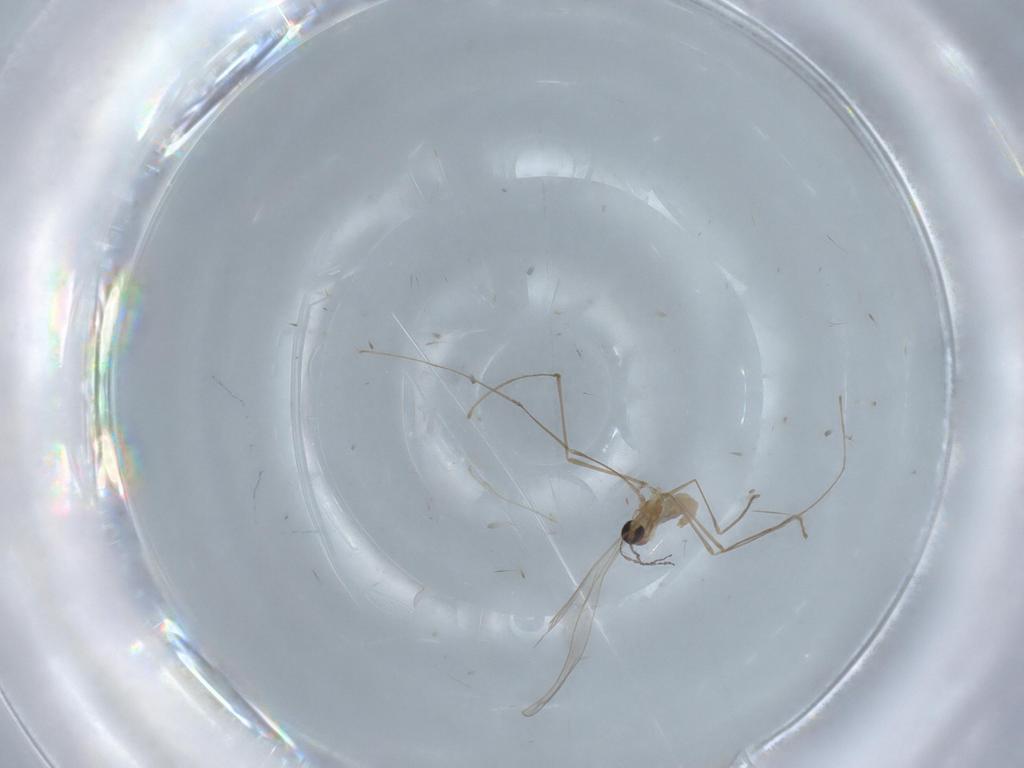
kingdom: Animalia
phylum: Arthropoda
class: Insecta
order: Diptera
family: Cecidomyiidae
